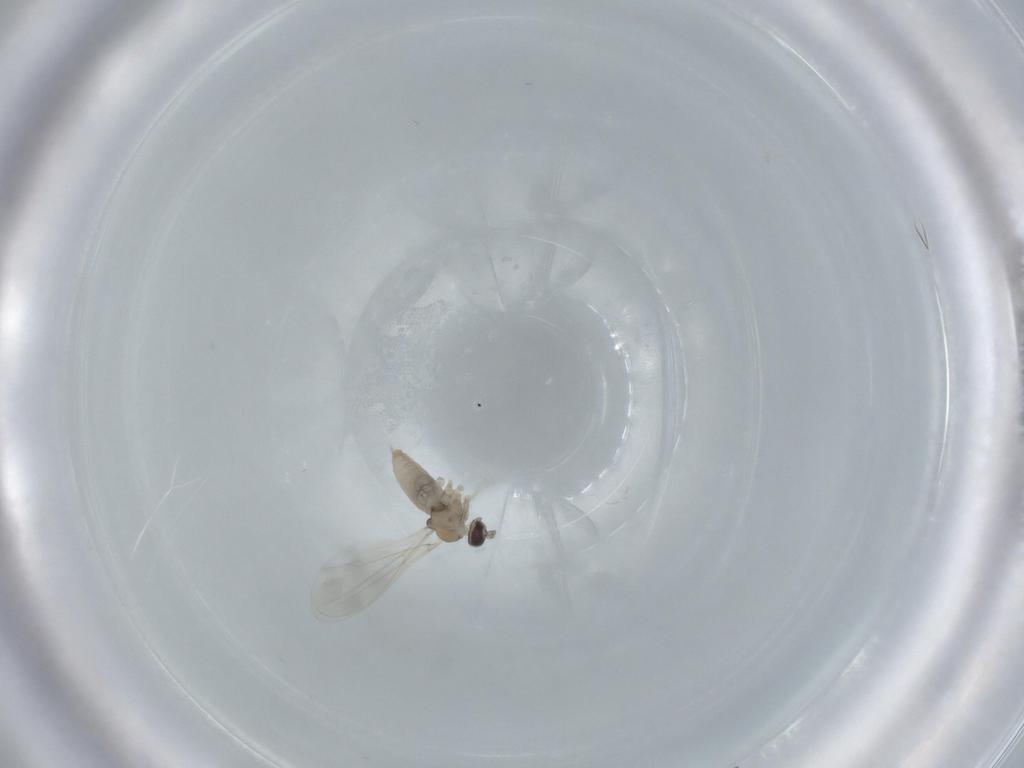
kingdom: Animalia
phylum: Arthropoda
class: Insecta
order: Diptera
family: Cecidomyiidae
